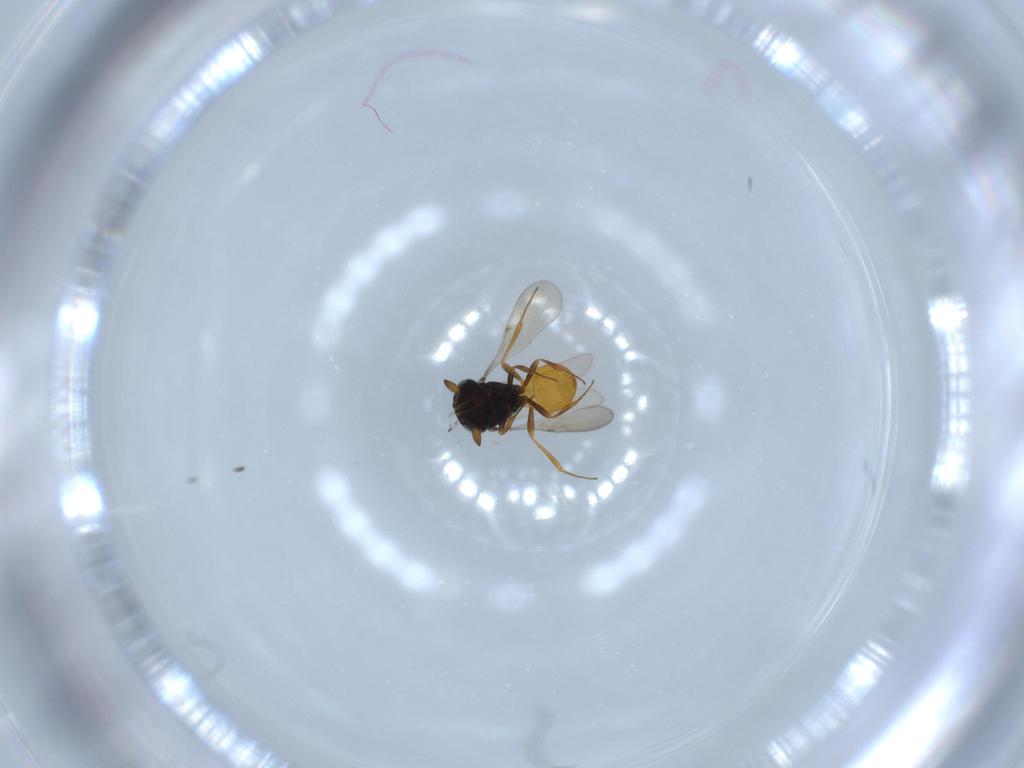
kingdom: Animalia
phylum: Arthropoda
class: Insecta
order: Hymenoptera
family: Scelionidae
